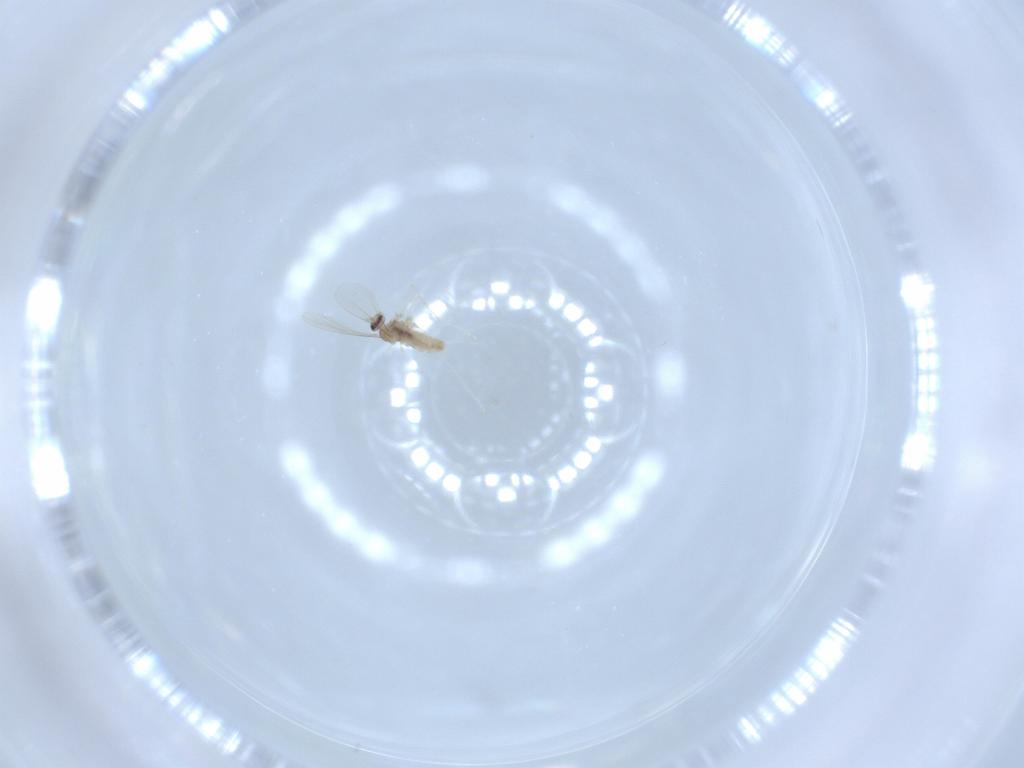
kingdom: Animalia
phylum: Arthropoda
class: Insecta
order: Diptera
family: Cecidomyiidae
